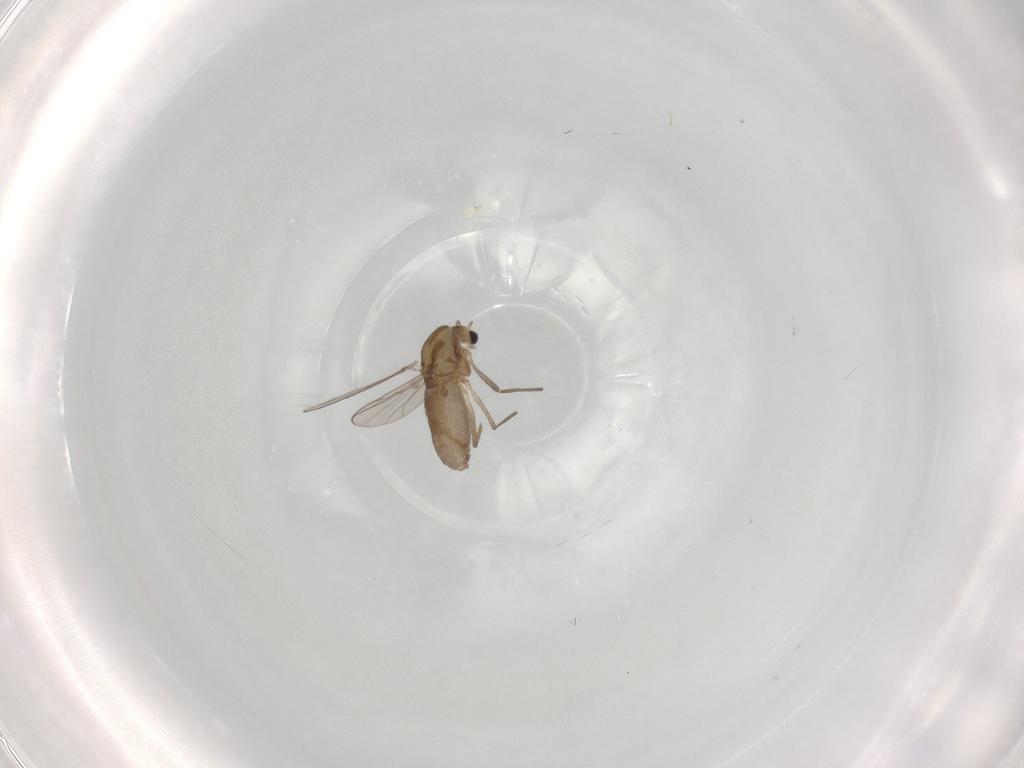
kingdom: Animalia
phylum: Arthropoda
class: Insecta
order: Diptera
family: Chironomidae
